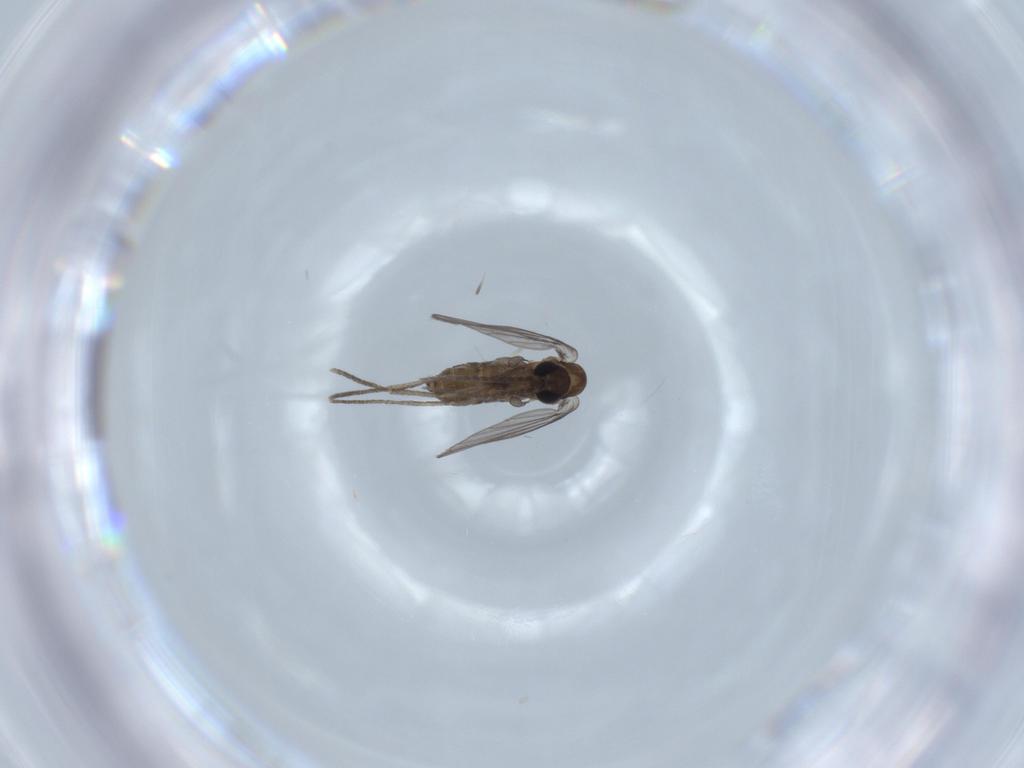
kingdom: Animalia
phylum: Arthropoda
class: Insecta
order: Diptera
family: Psychodidae
